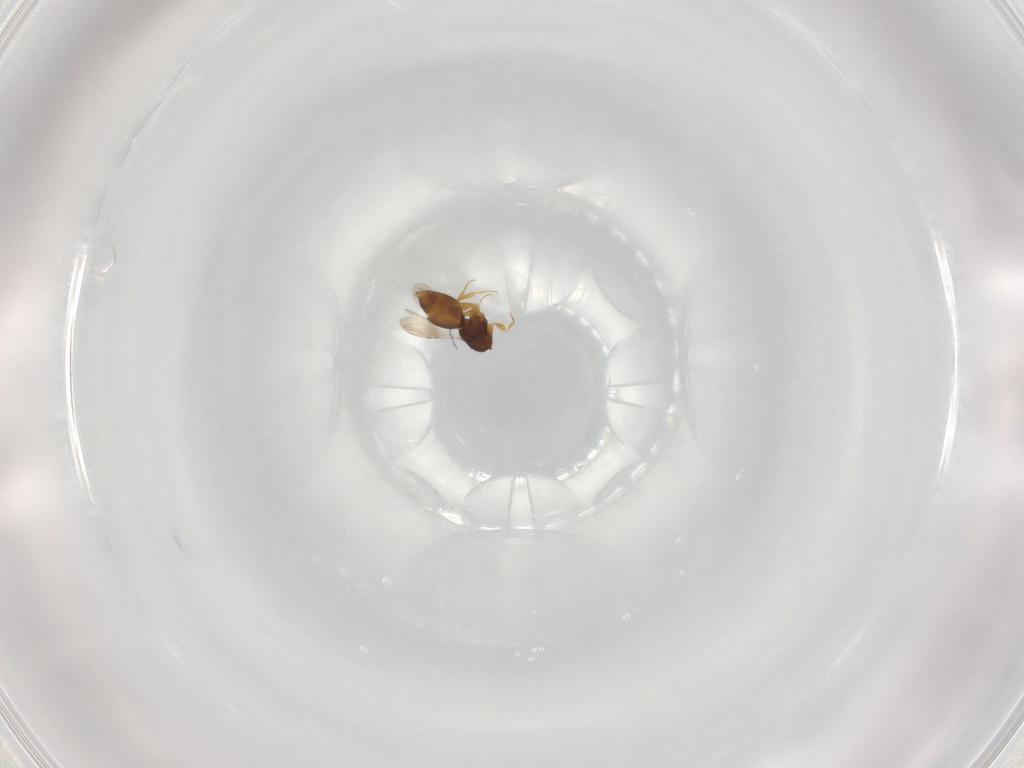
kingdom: Animalia
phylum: Arthropoda
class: Insecta
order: Hymenoptera
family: Ceraphronidae
